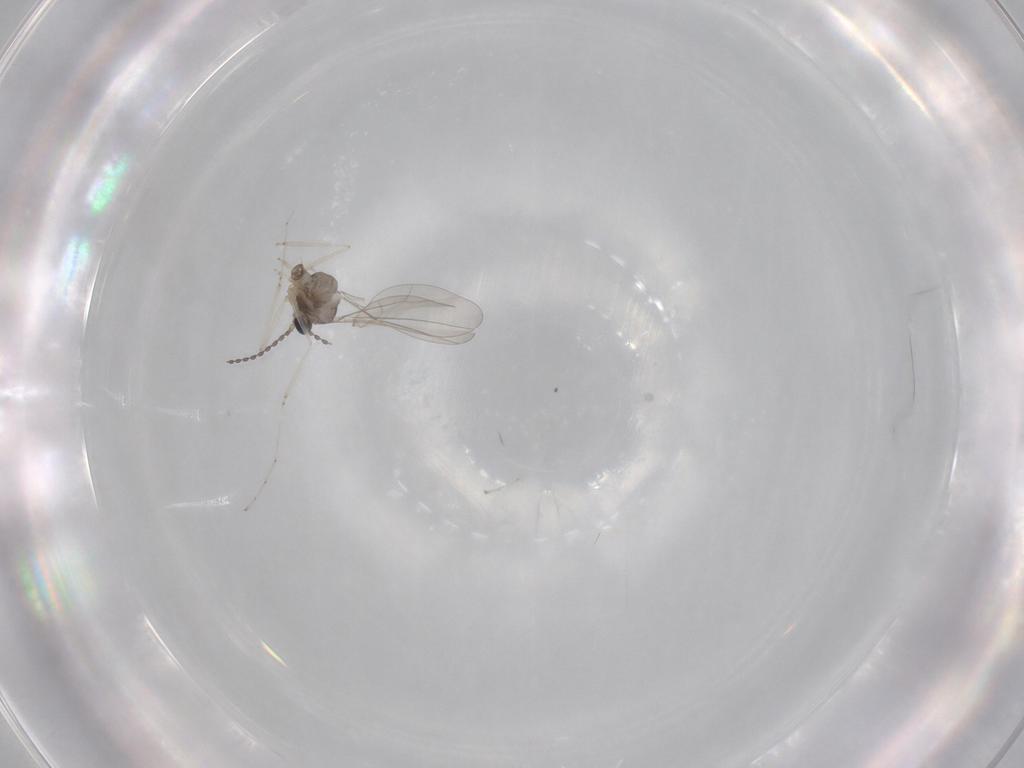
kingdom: Animalia
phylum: Arthropoda
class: Insecta
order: Diptera
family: Cecidomyiidae
